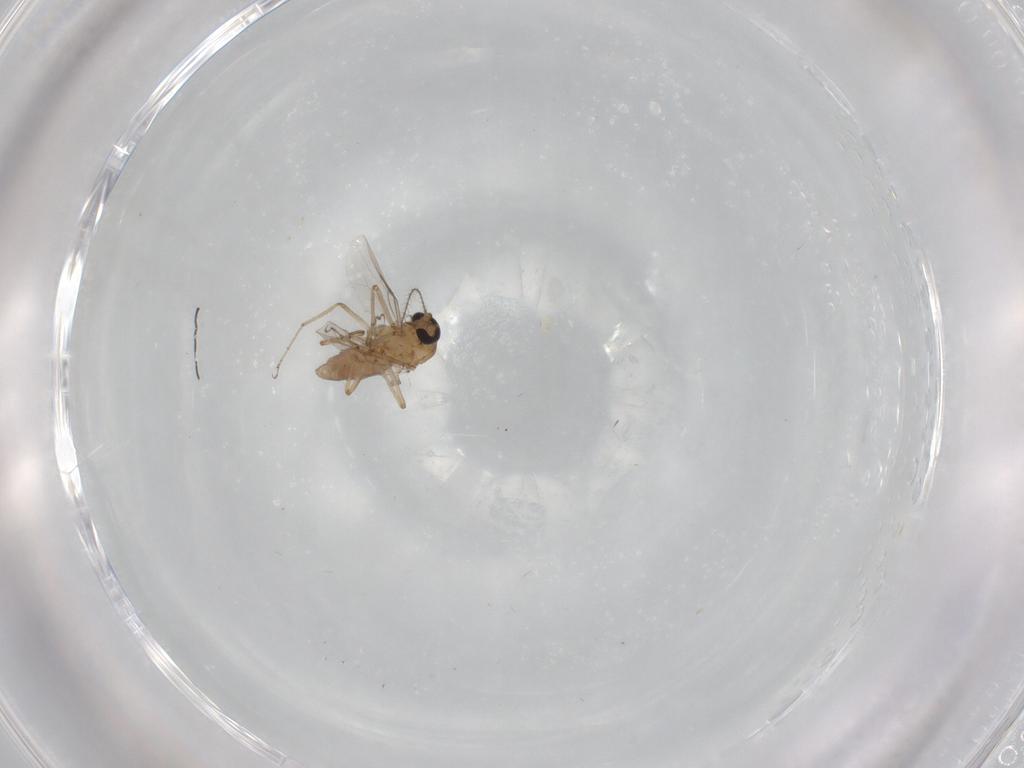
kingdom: Animalia
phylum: Arthropoda
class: Insecta
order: Diptera
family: Ceratopogonidae
